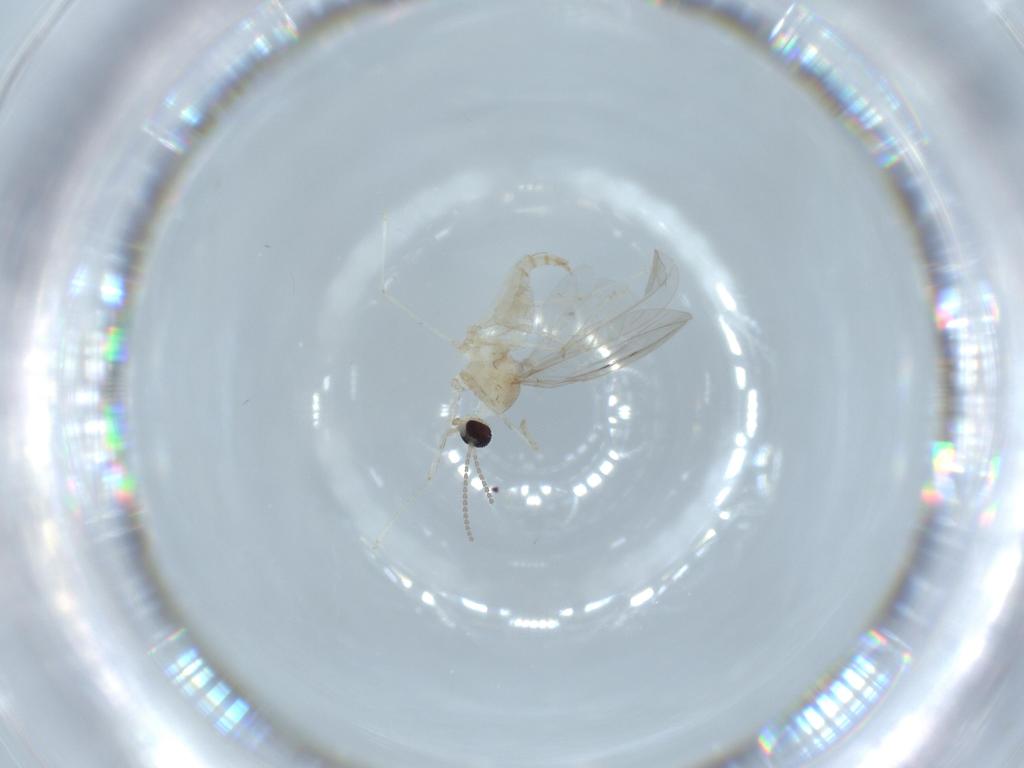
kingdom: Animalia
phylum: Arthropoda
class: Insecta
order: Diptera
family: Cecidomyiidae
